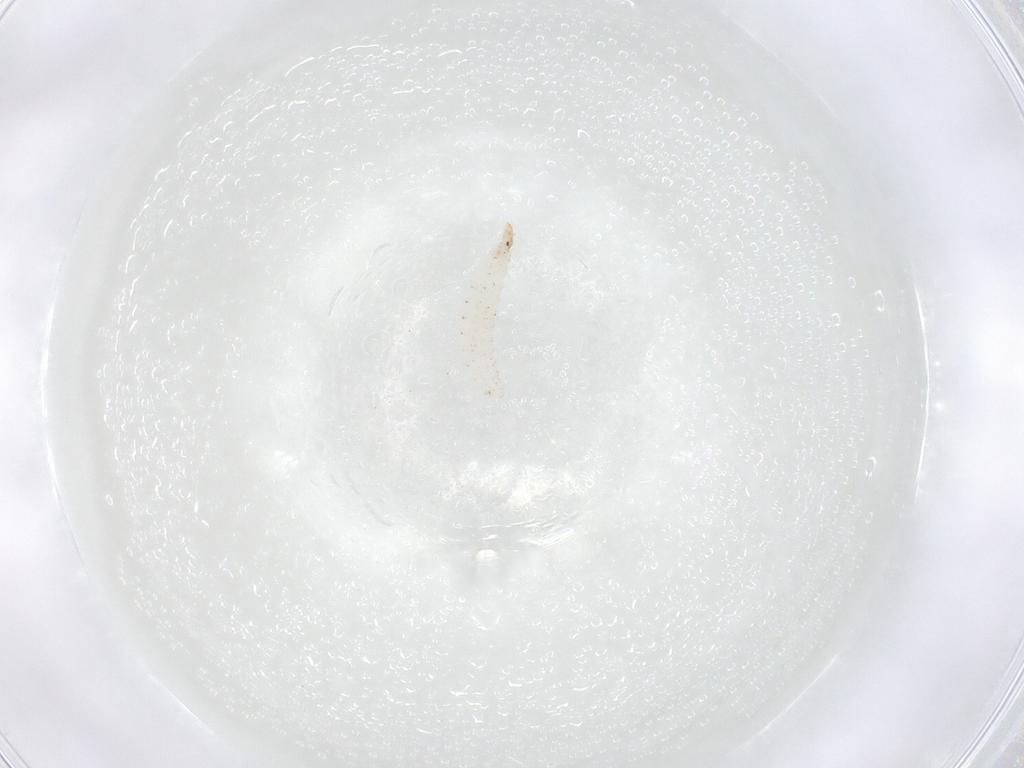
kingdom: Animalia
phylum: Arthropoda
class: Insecta
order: Diptera
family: Stratiomyidae
